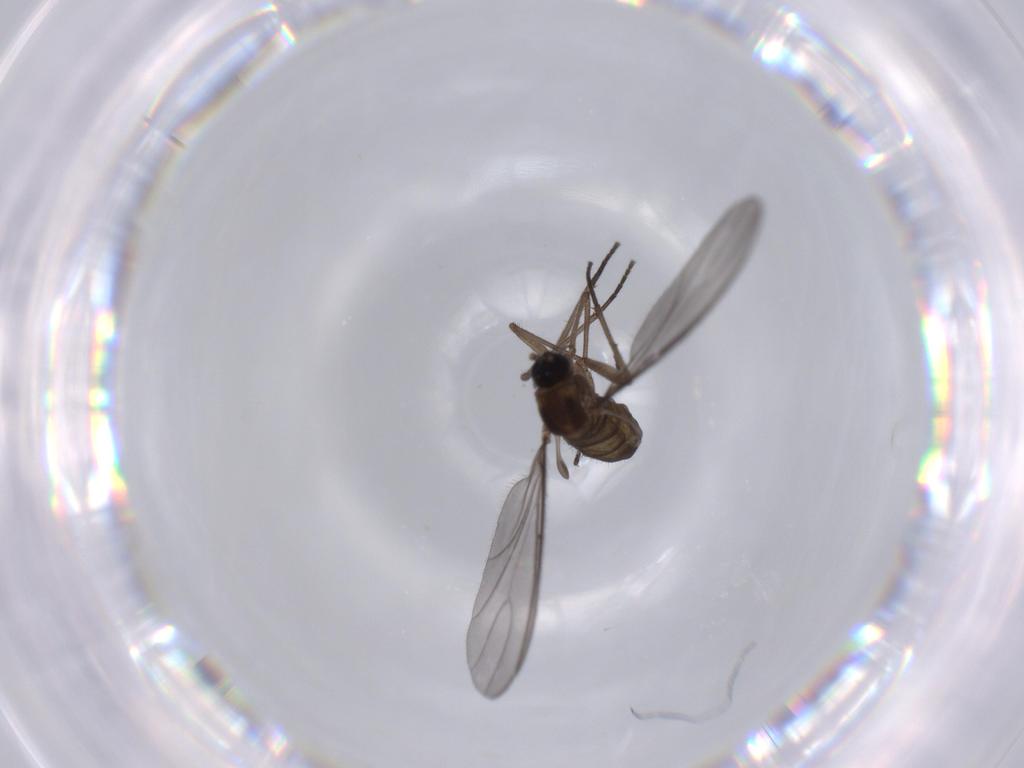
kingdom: Animalia
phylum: Arthropoda
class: Insecta
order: Diptera
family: Sciaridae
